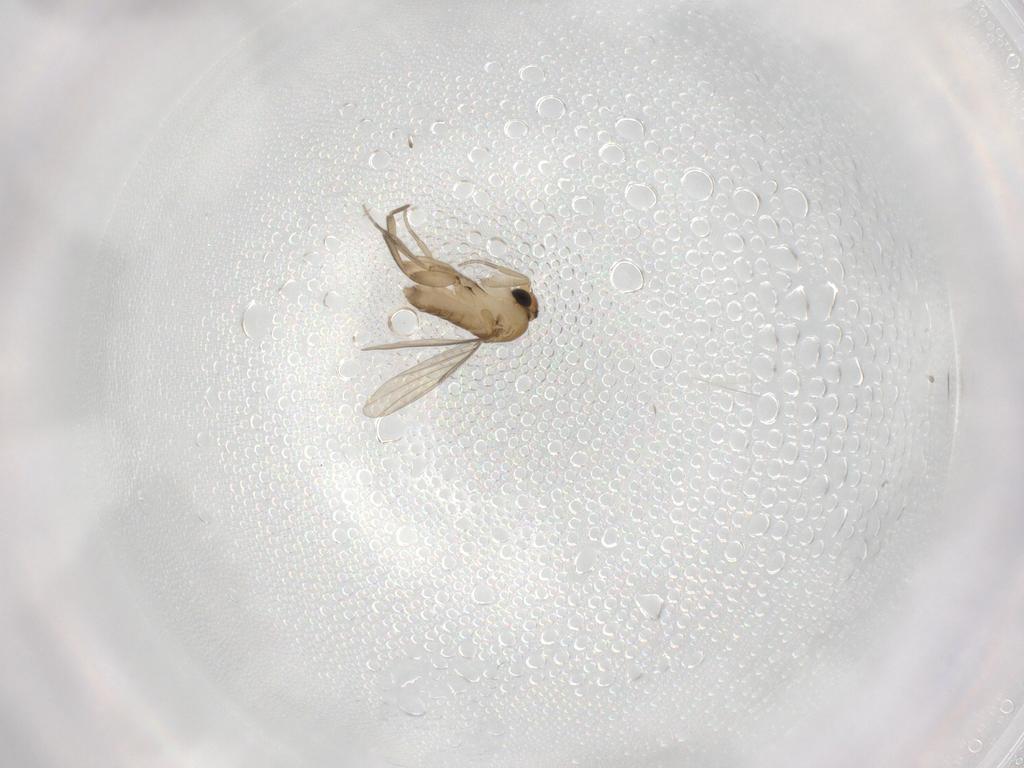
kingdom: Animalia
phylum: Arthropoda
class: Insecta
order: Diptera
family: Phoridae
